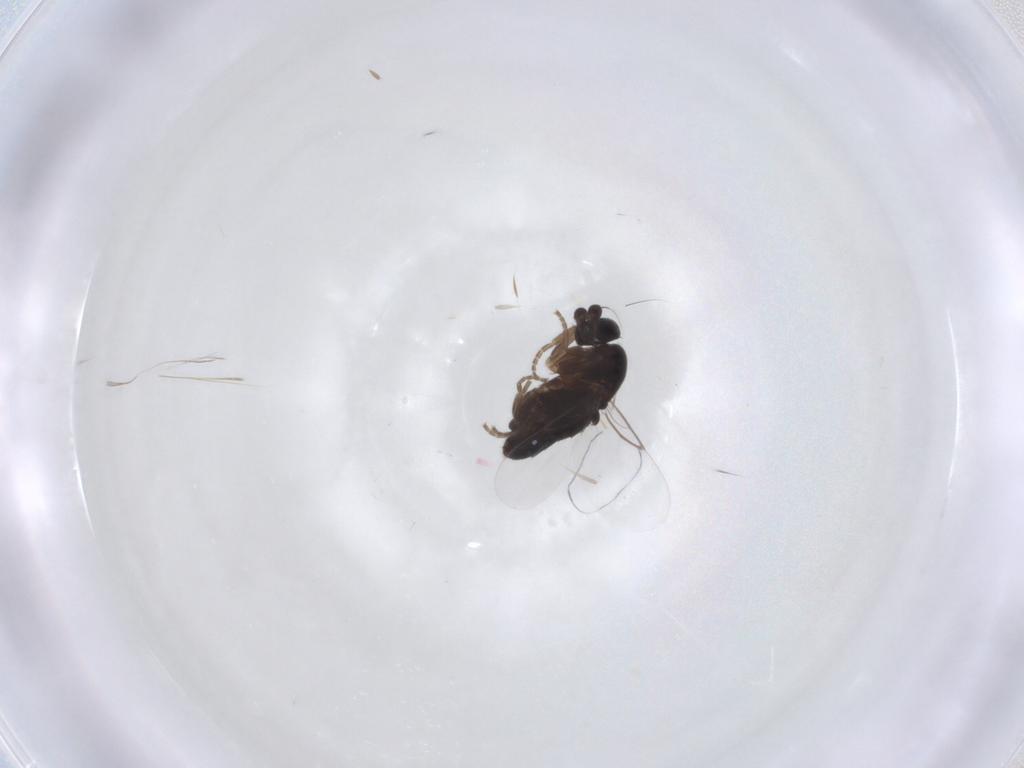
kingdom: Animalia
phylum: Arthropoda
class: Insecta
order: Diptera
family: Phoridae
